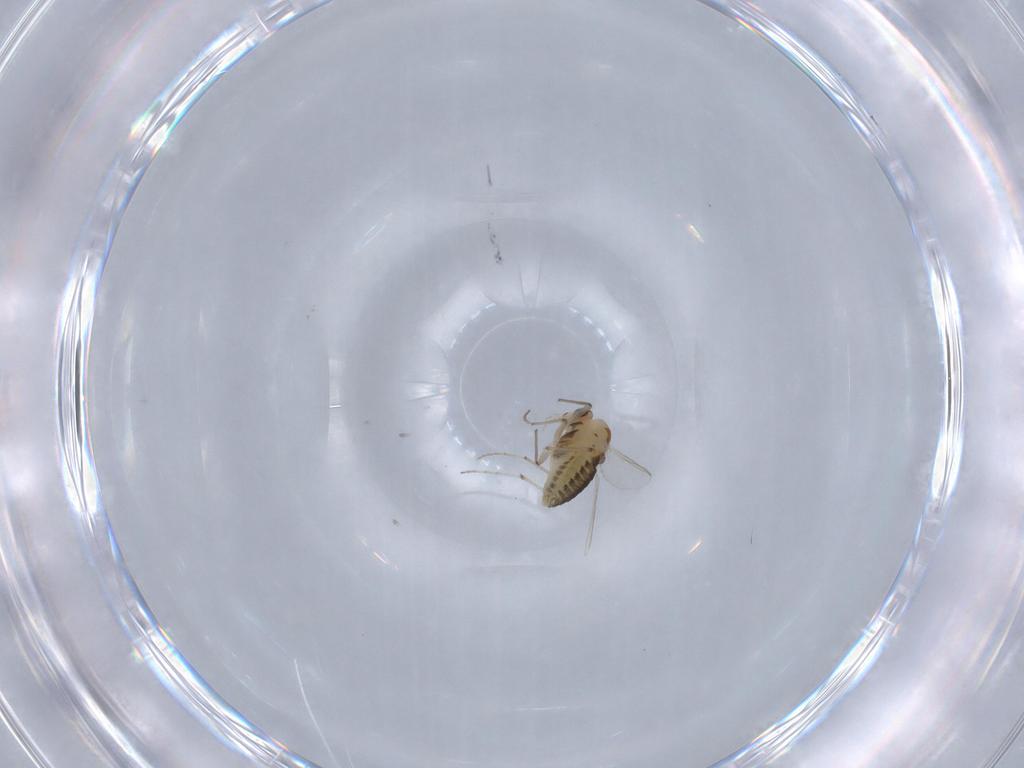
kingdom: Animalia
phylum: Arthropoda
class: Insecta
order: Diptera
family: Chironomidae
